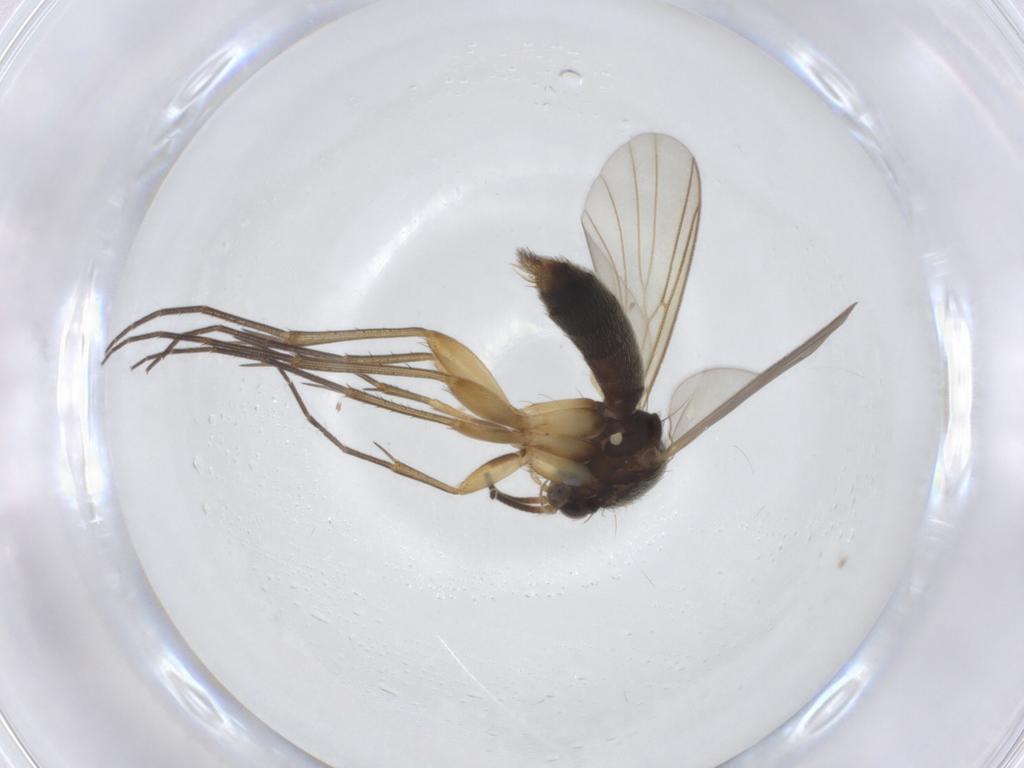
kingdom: Animalia
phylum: Arthropoda
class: Insecta
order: Diptera
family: Mycetophilidae
